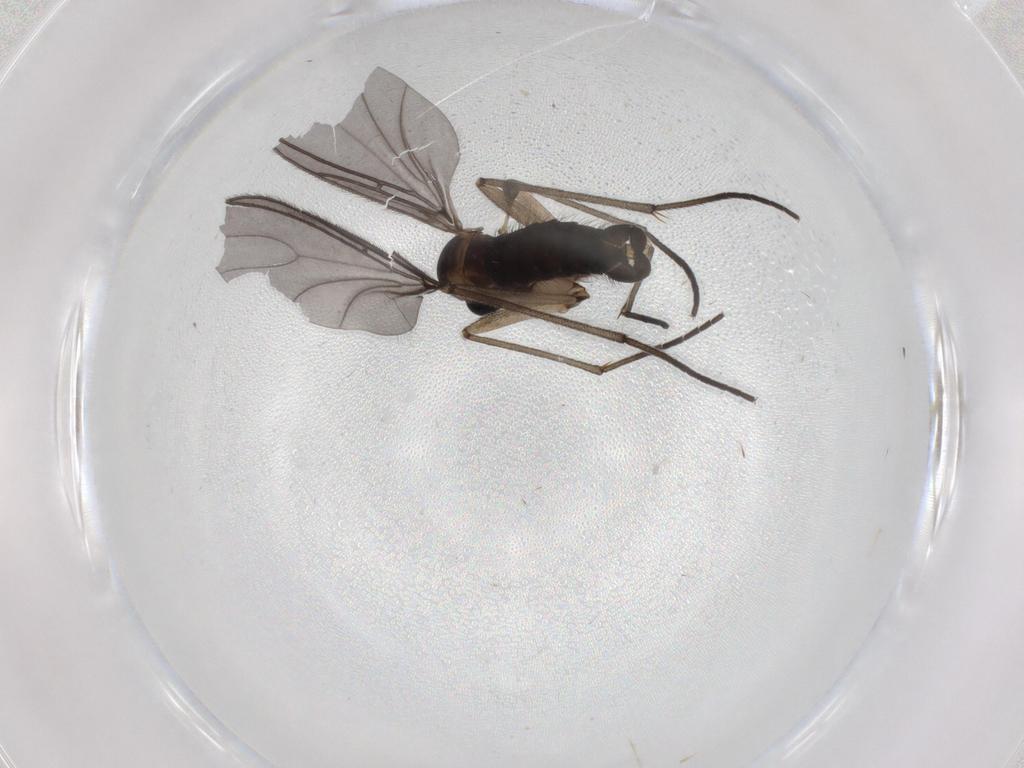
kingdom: Animalia
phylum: Arthropoda
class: Insecta
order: Diptera
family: Sciaridae
